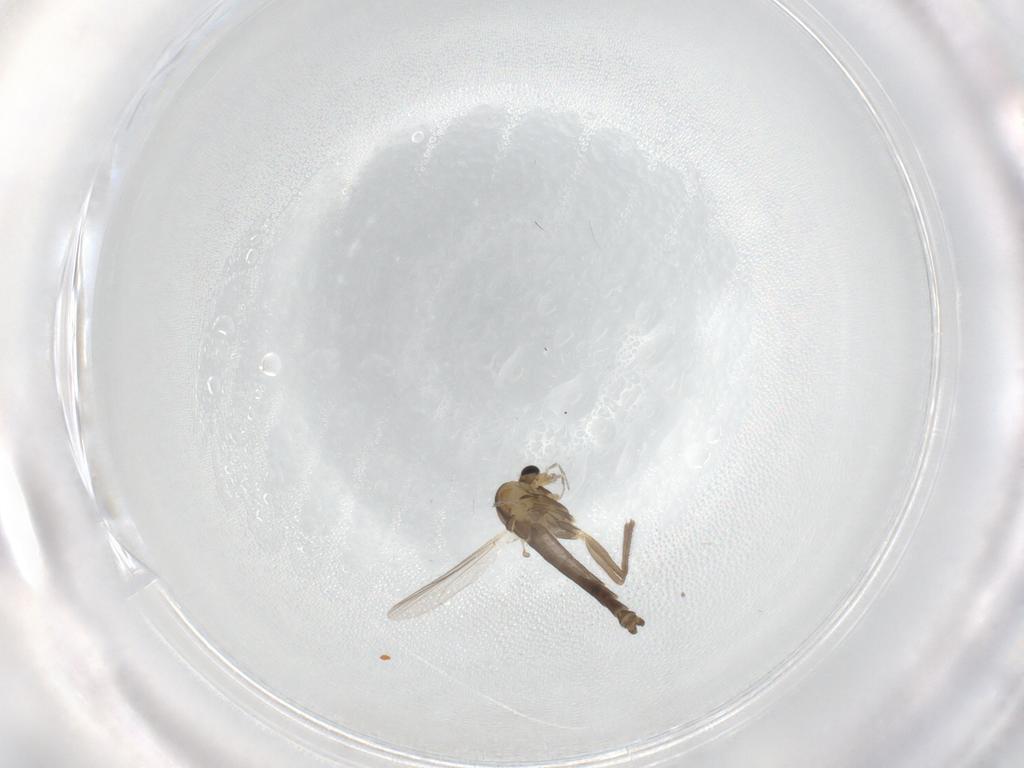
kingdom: Animalia
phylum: Arthropoda
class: Insecta
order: Diptera
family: Chironomidae
